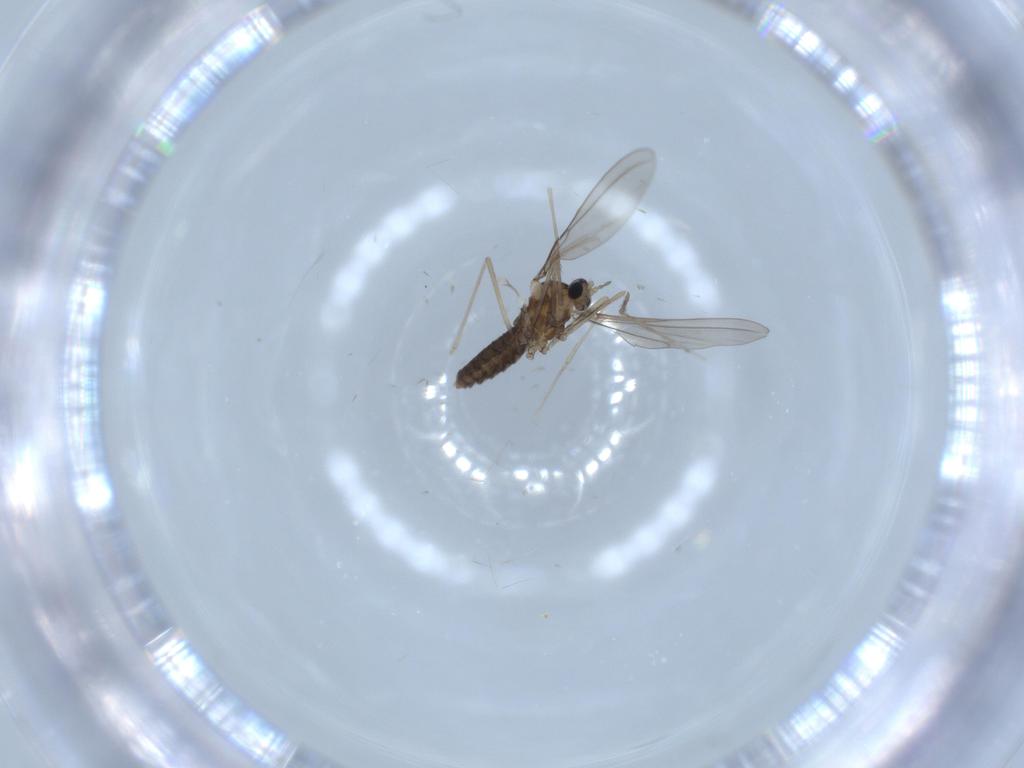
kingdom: Animalia
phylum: Arthropoda
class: Insecta
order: Diptera
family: Cecidomyiidae
